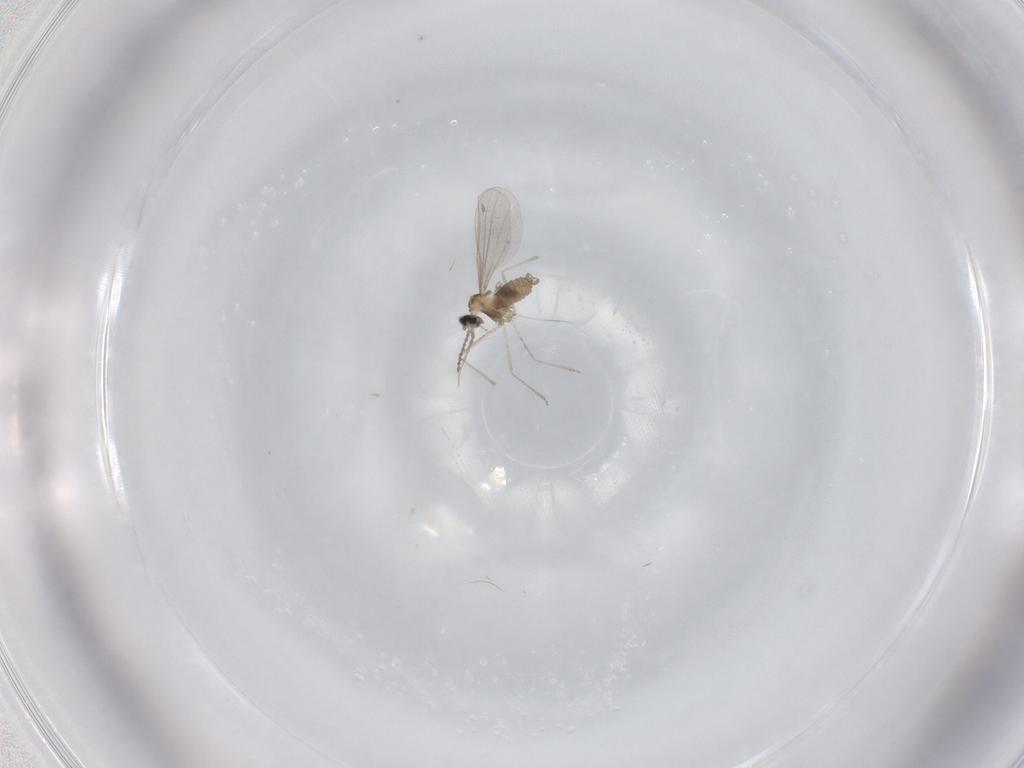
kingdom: Animalia
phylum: Arthropoda
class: Insecta
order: Diptera
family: Cecidomyiidae
